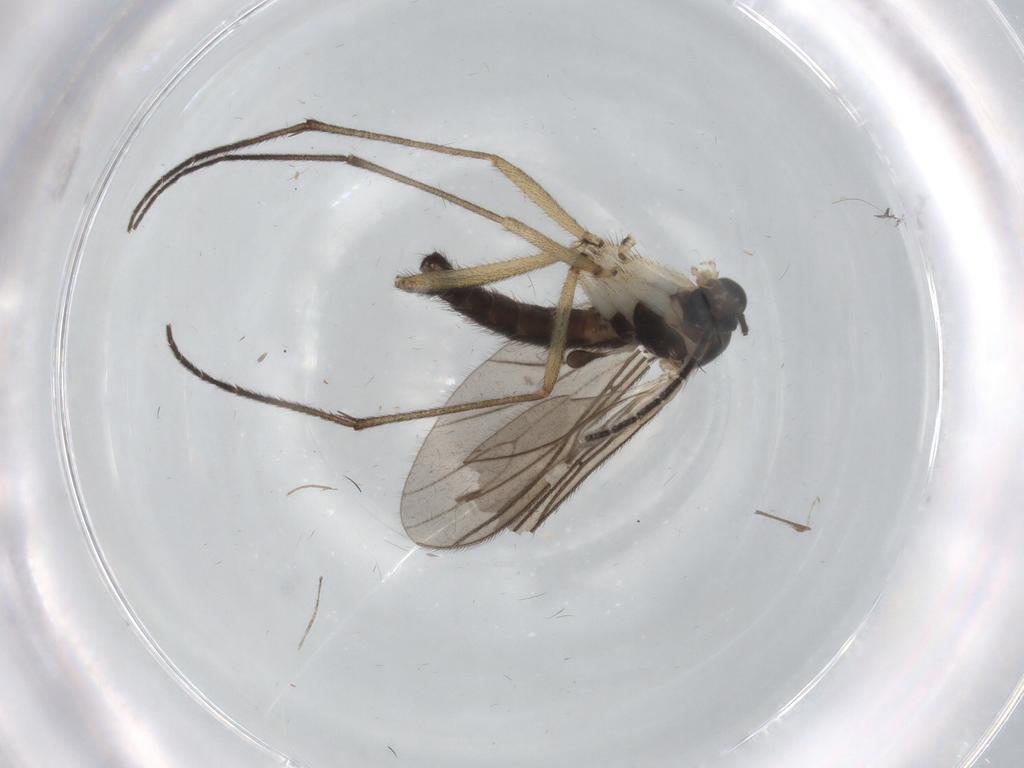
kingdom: Animalia
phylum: Arthropoda
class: Insecta
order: Diptera
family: Sciaridae
